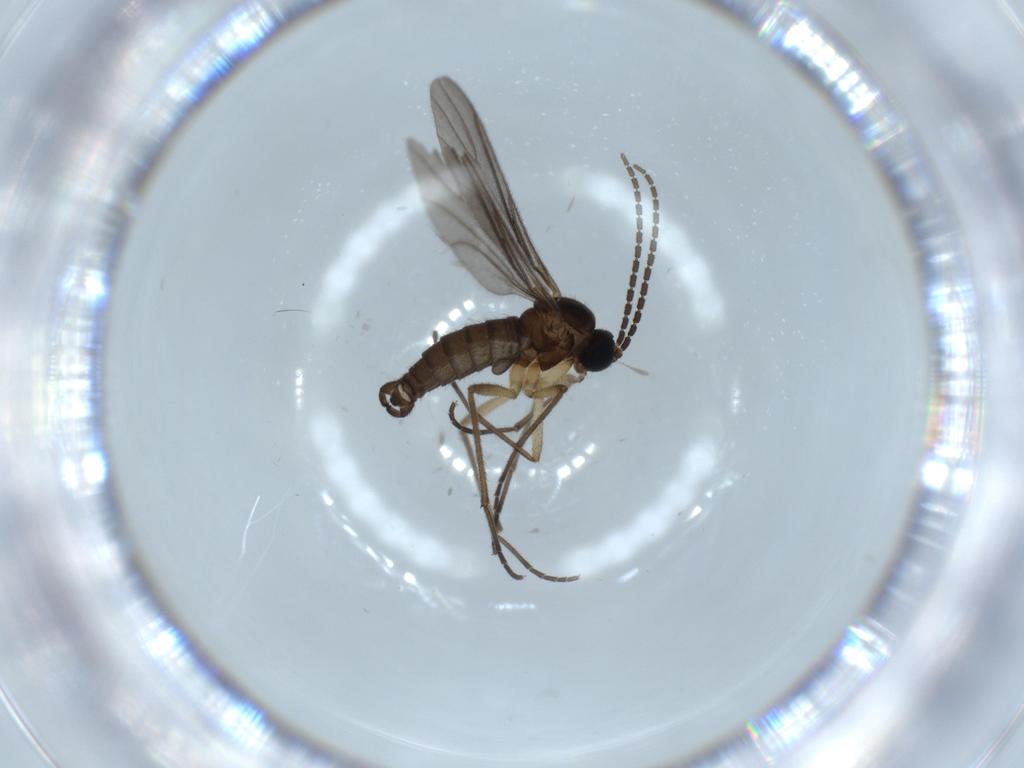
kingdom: Animalia
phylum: Arthropoda
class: Insecta
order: Diptera
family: Sciaridae
